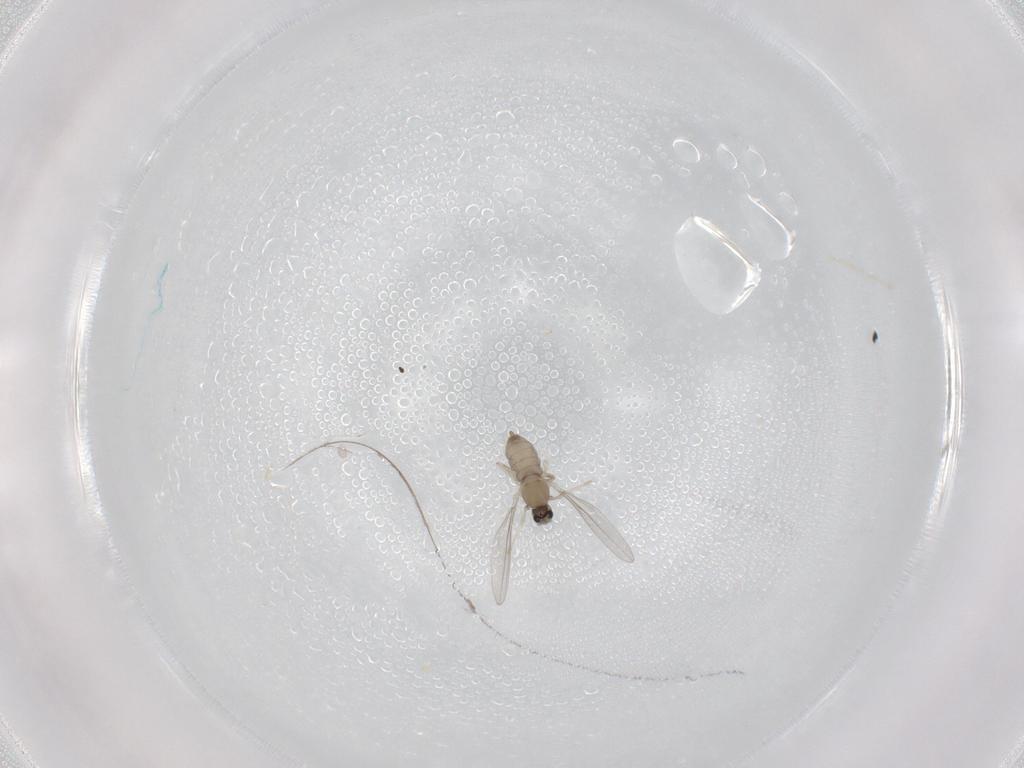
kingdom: Animalia
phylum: Arthropoda
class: Insecta
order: Diptera
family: Cecidomyiidae
